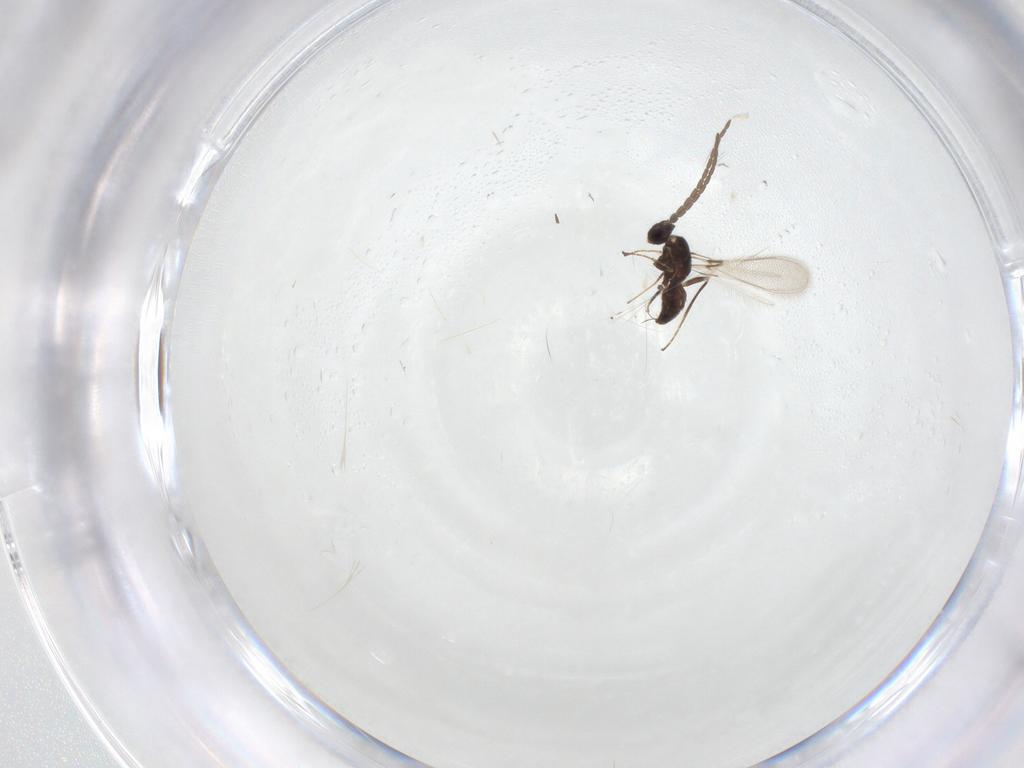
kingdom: Animalia
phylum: Arthropoda
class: Insecta
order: Hymenoptera
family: Mymaridae
